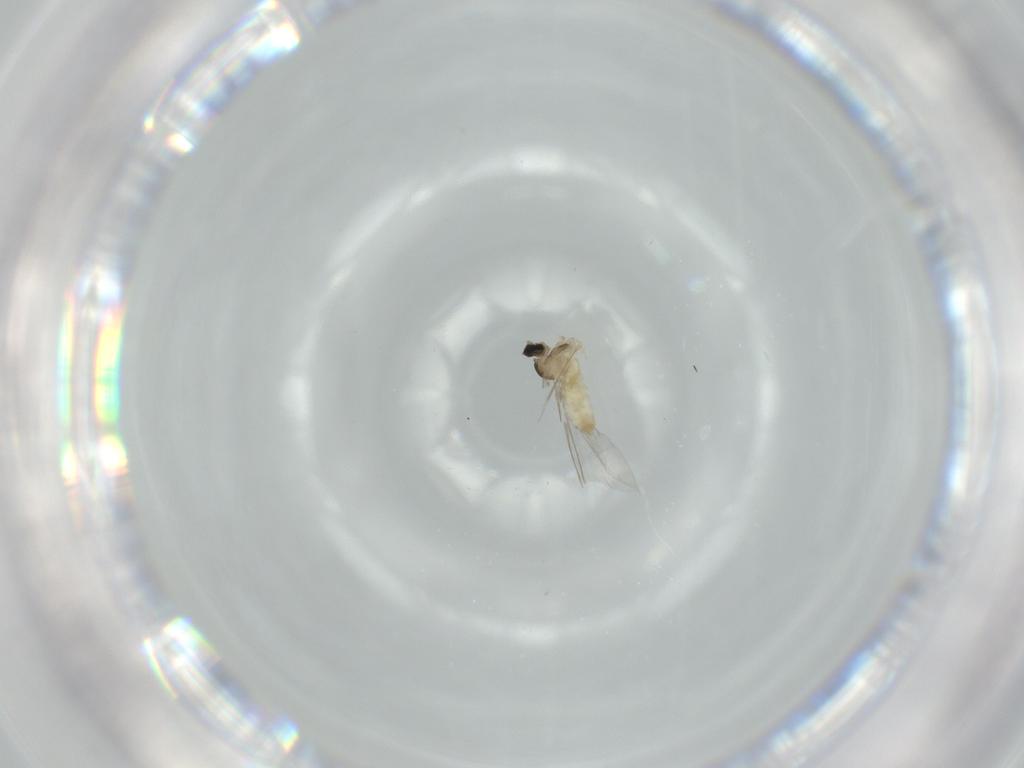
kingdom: Animalia
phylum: Arthropoda
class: Insecta
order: Diptera
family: Cecidomyiidae
